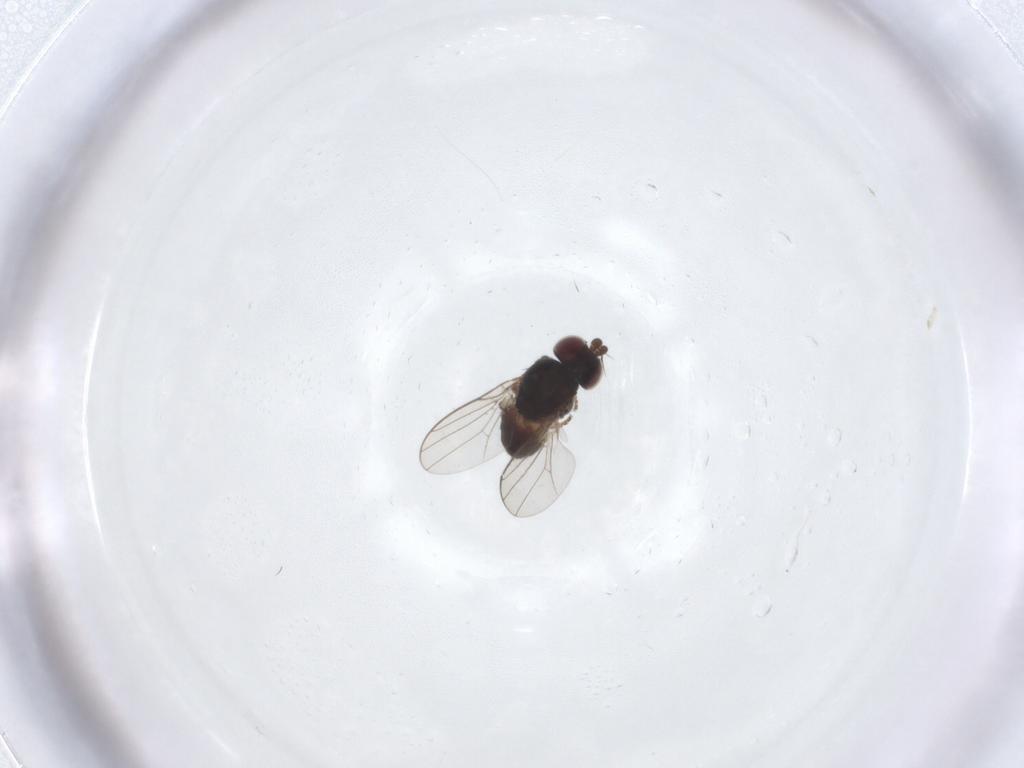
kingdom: Animalia
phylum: Arthropoda
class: Insecta
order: Diptera
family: Chloropidae
